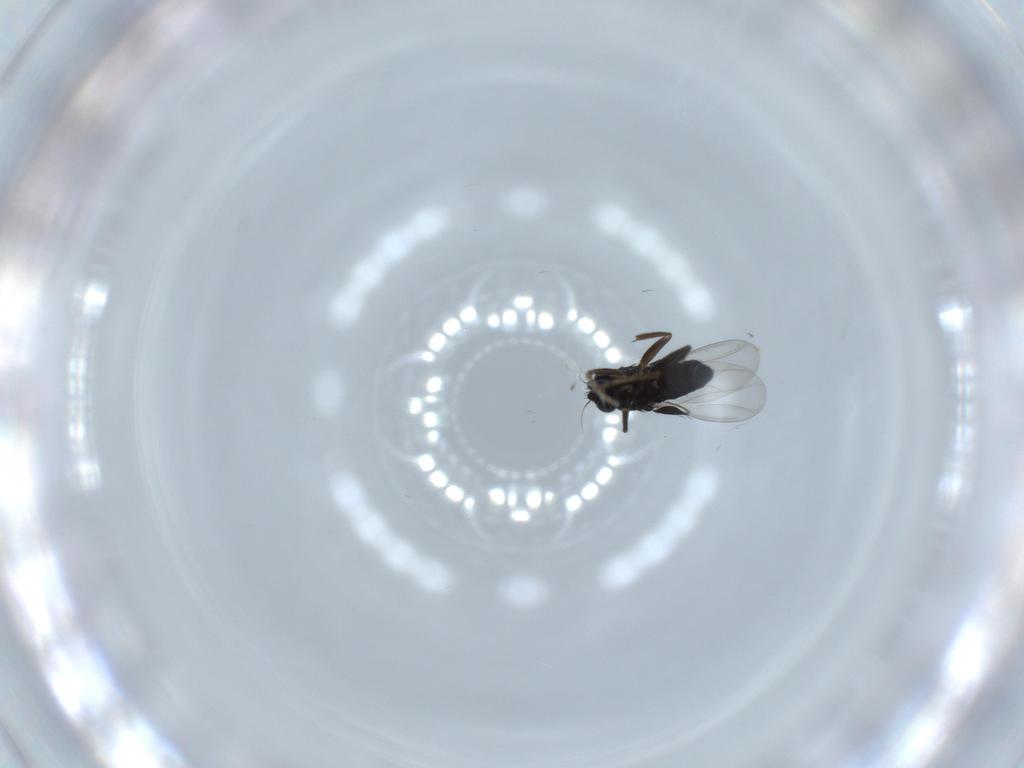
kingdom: Animalia
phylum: Arthropoda
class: Insecta
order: Diptera
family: Phoridae
